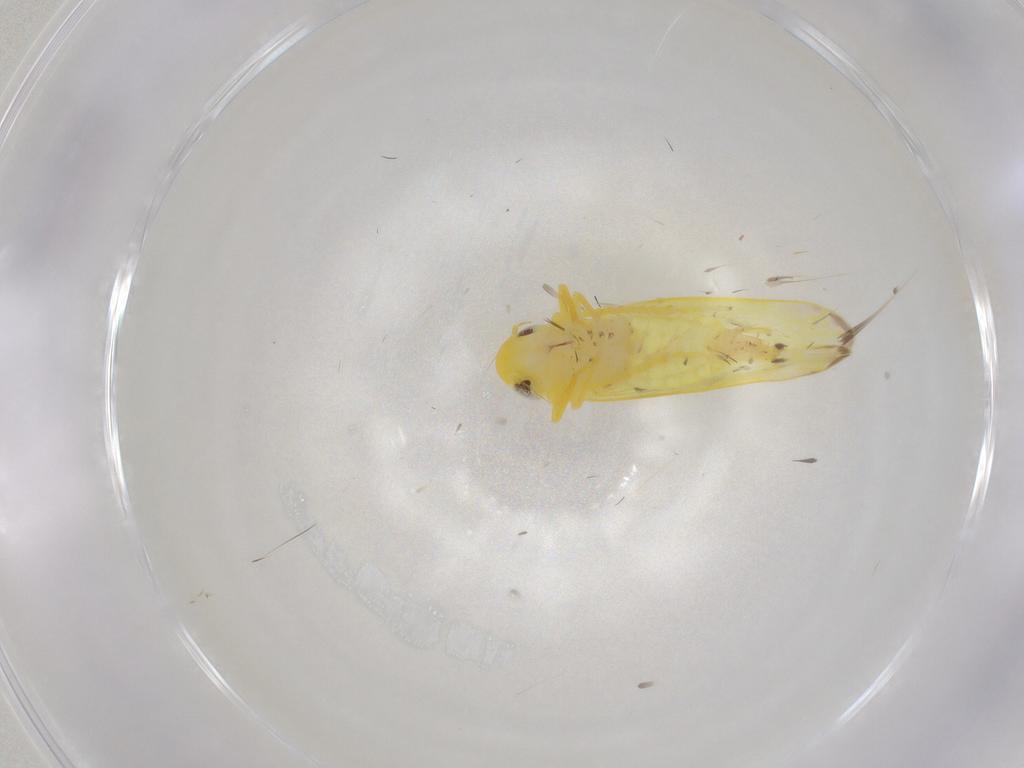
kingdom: Animalia
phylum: Arthropoda
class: Insecta
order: Hemiptera
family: Cicadellidae
